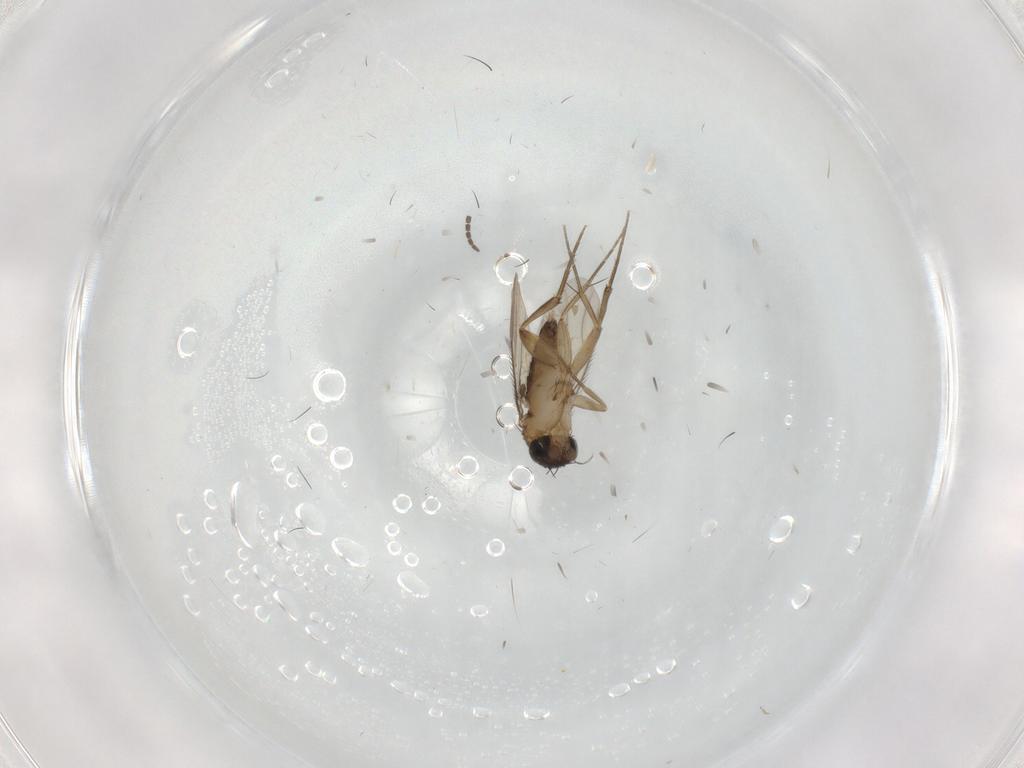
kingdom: Animalia
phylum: Arthropoda
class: Insecta
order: Diptera
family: Phoridae
